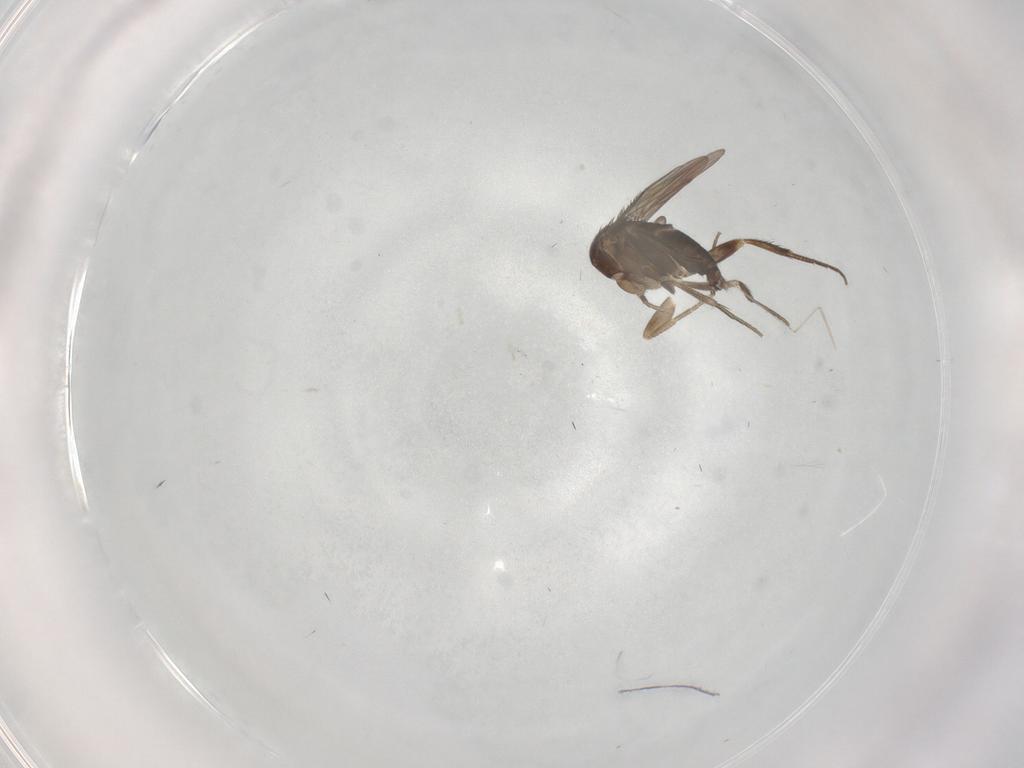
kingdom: Animalia
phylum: Arthropoda
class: Insecta
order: Diptera
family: Phoridae
